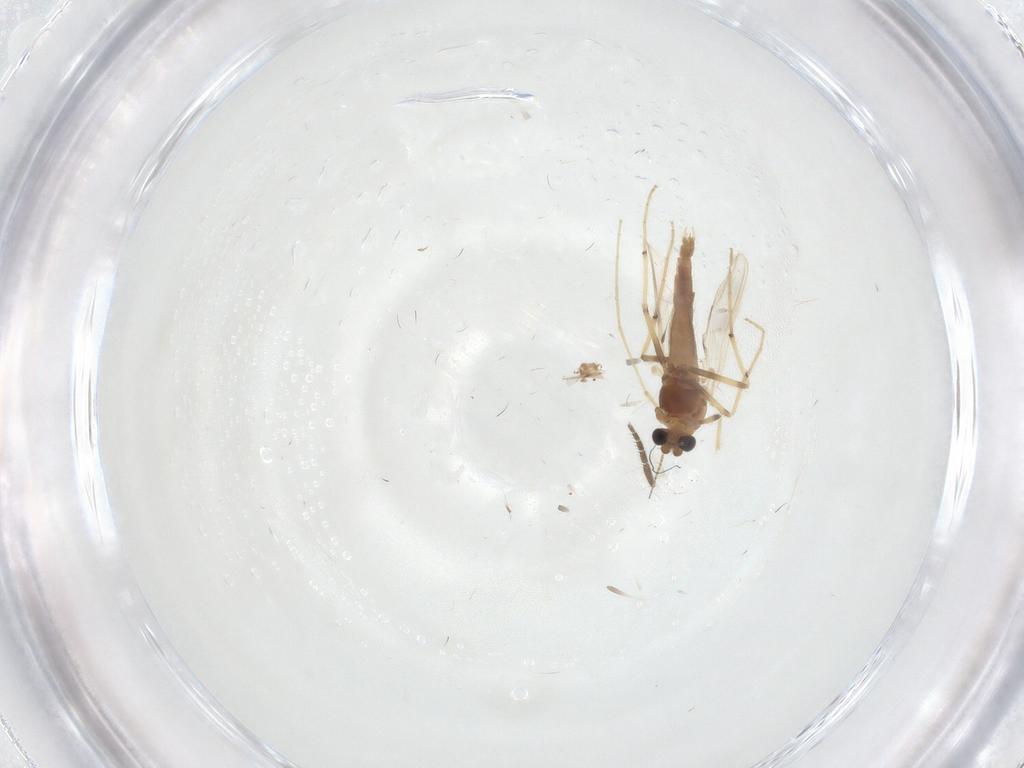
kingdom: Animalia
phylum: Arthropoda
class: Insecta
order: Diptera
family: Chironomidae
